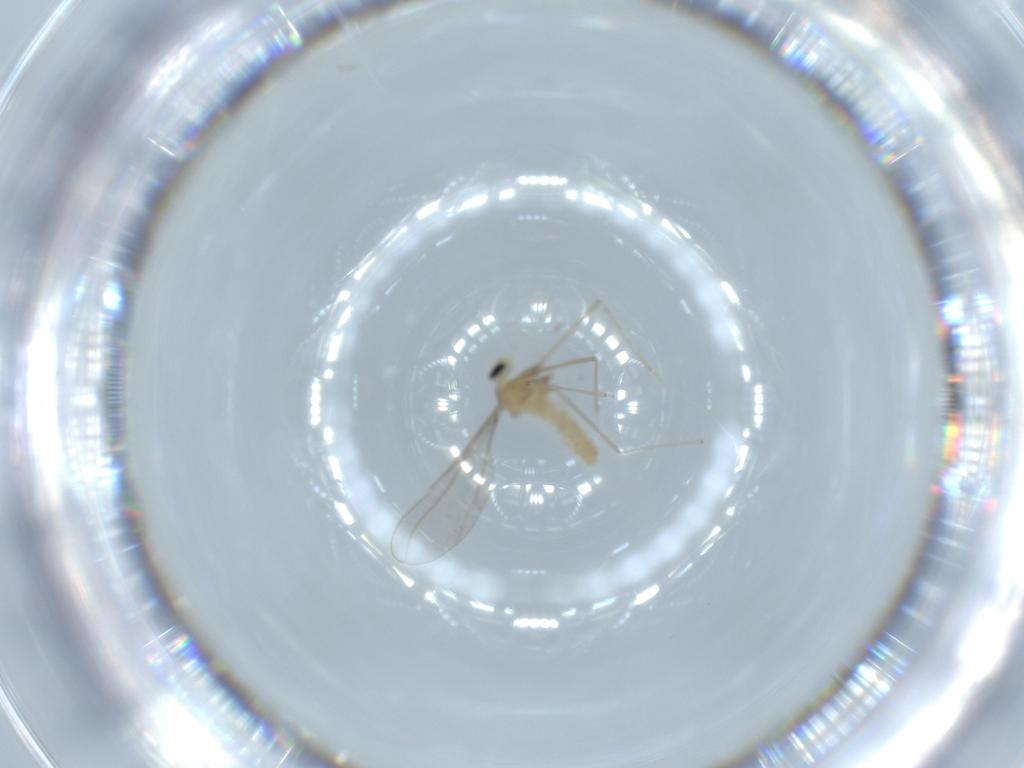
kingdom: Animalia
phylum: Arthropoda
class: Insecta
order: Diptera
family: Cecidomyiidae
